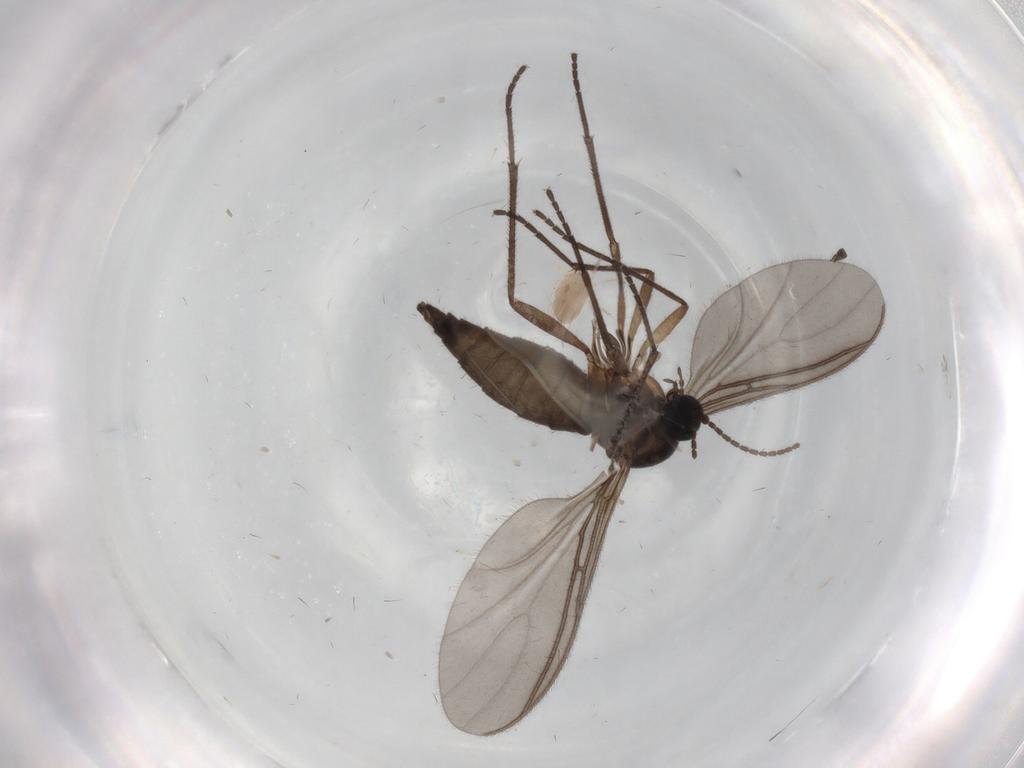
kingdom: Animalia
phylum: Arthropoda
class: Insecta
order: Diptera
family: Sciaridae
